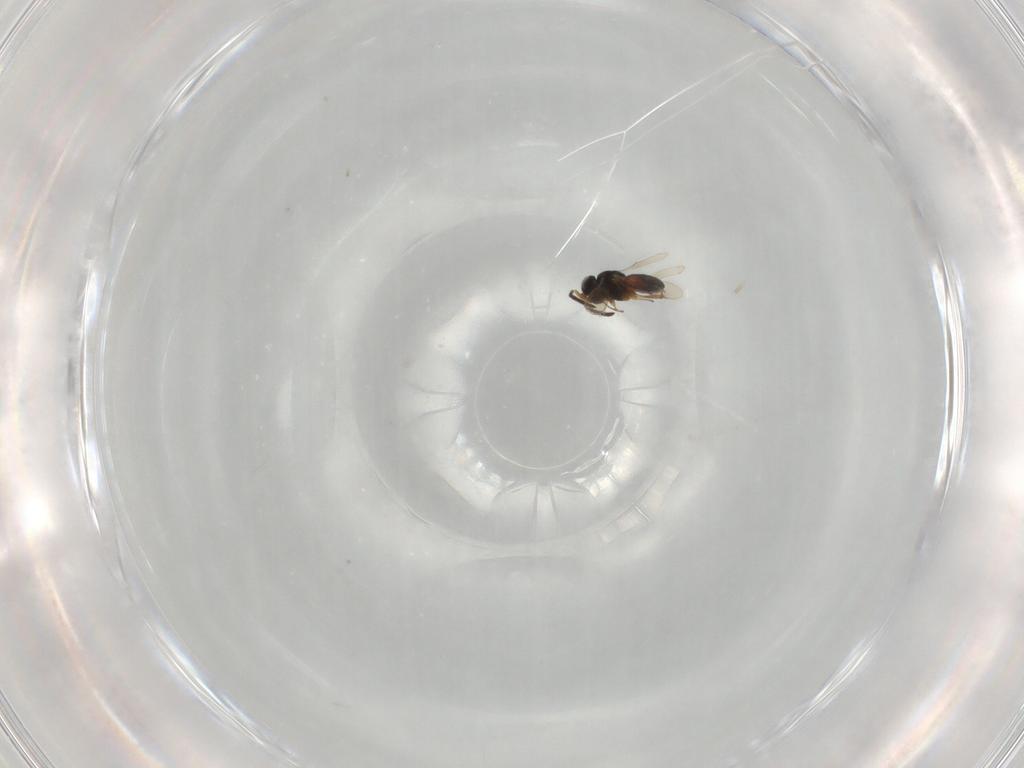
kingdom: Animalia
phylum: Arthropoda
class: Insecta
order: Hymenoptera
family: Scelionidae
